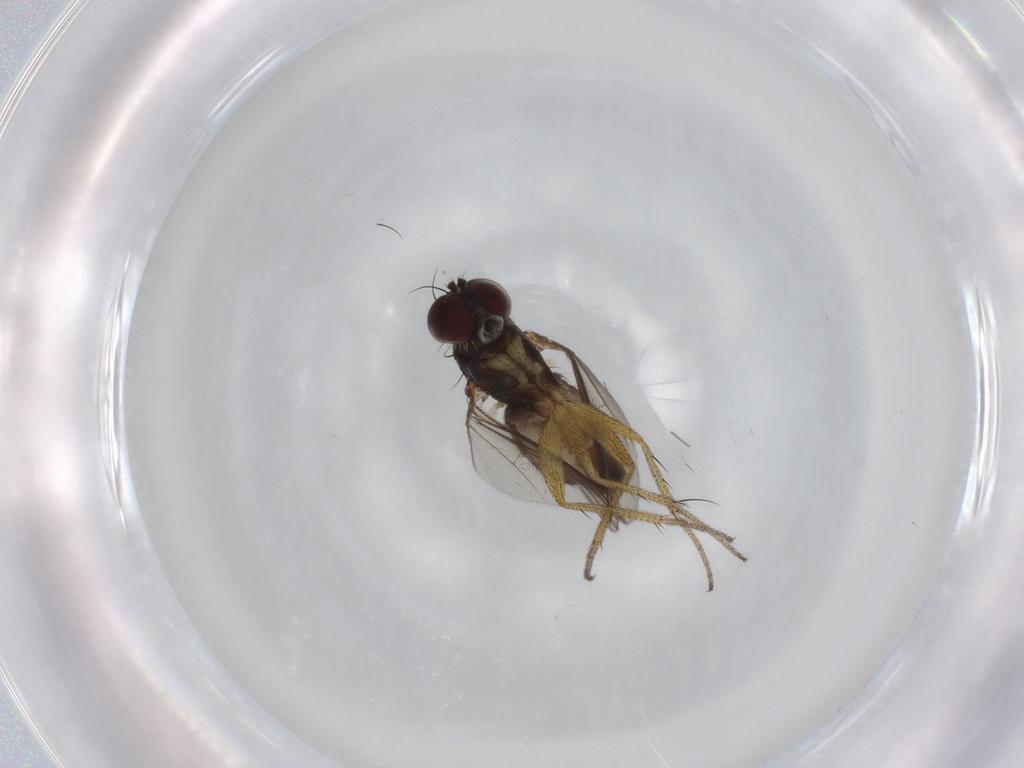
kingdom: Animalia
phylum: Arthropoda
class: Insecta
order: Diptera
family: Dolichopodidae
